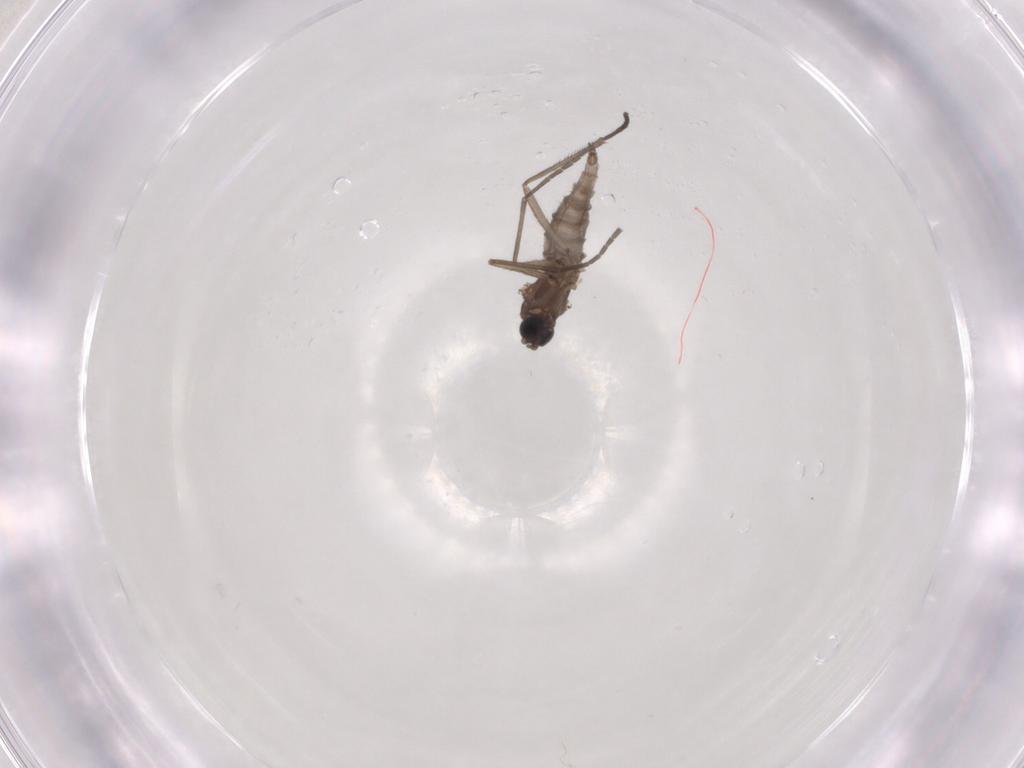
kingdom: Animalia
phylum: Arthropoda
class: Insecta
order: Diptera
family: Sciaridae
